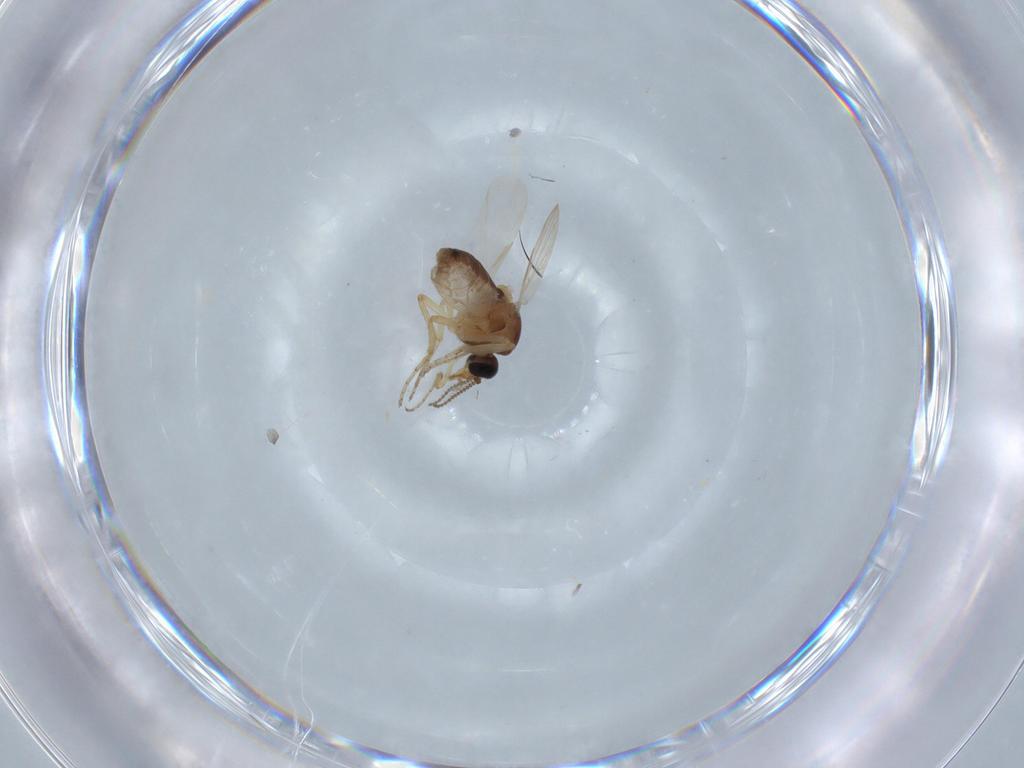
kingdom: Animalia
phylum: Arthropoda
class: Insecta
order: Diptera
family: Ceratopogonidae
